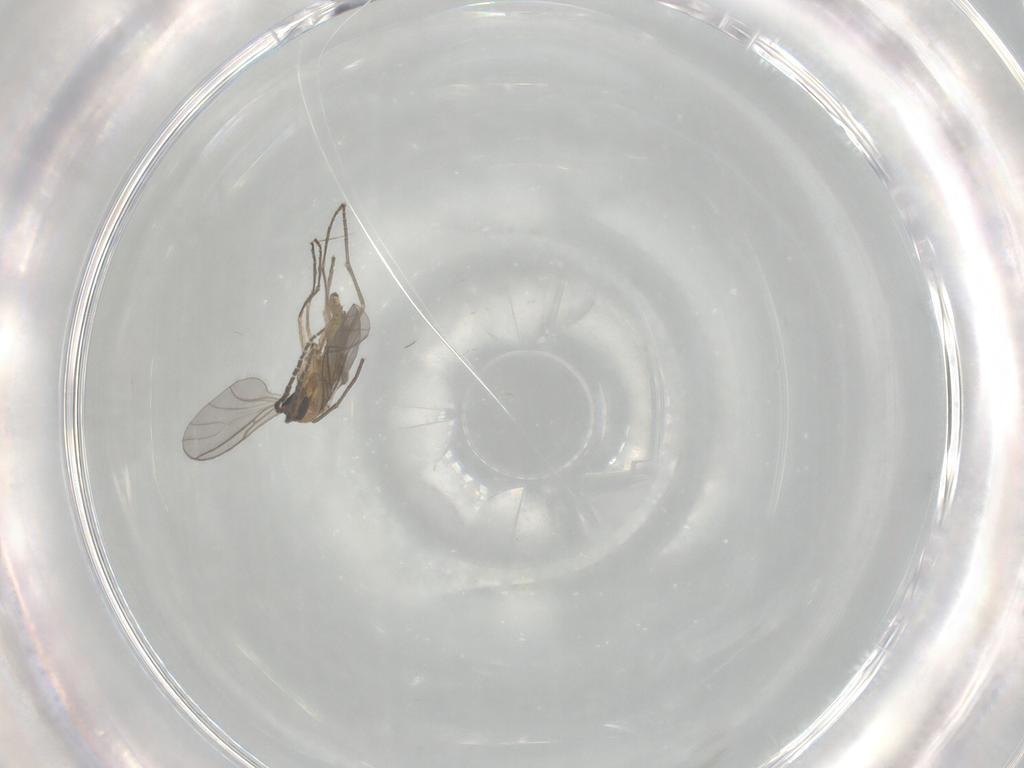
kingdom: Animalia
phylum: Arthropoda
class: Insecta
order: Diptera
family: Sciaridae
